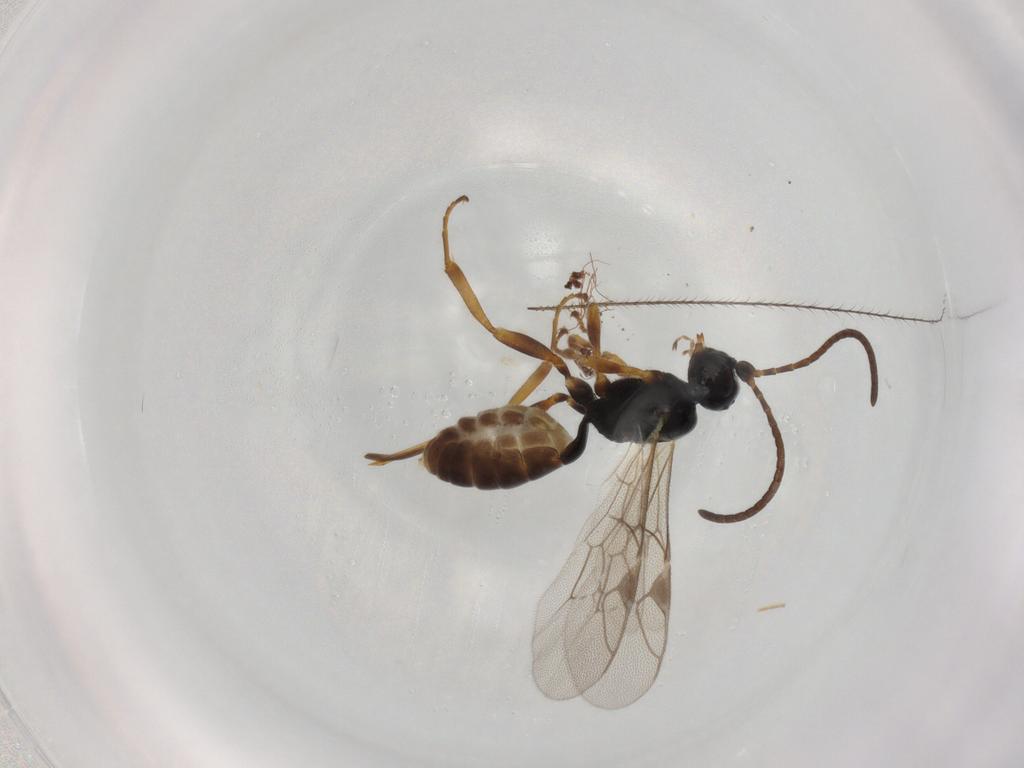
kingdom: Animalia
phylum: Arthropoda
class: Insecta
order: Hymenoptera
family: Ichneumonidae
